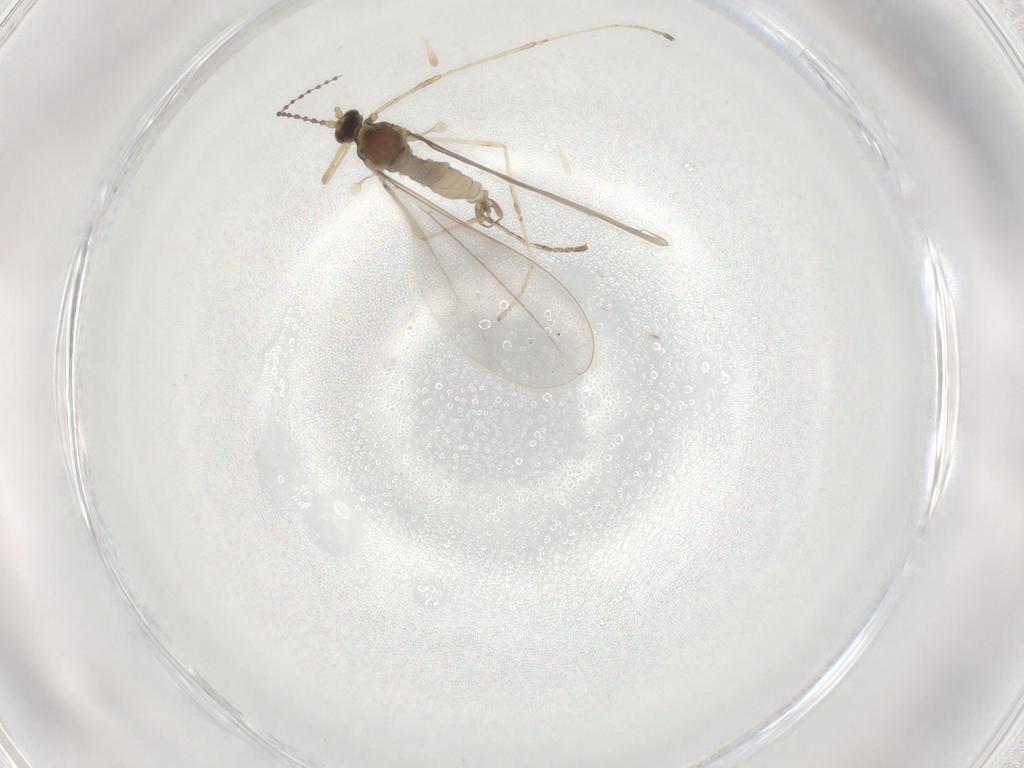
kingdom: Animalia
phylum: Arthropoda
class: Insecta
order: Diptera
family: Cecidomyiidae
